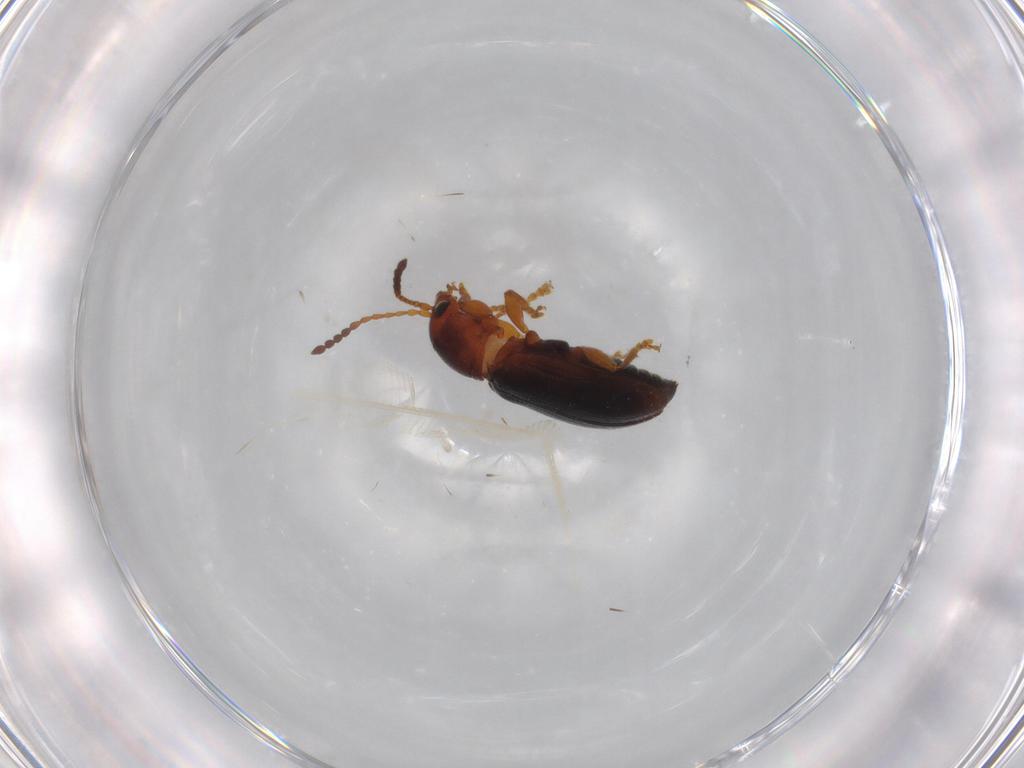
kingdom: Animalia
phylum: Arthropoda
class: Insecta
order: Coleoptera
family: Chrysomelidae
